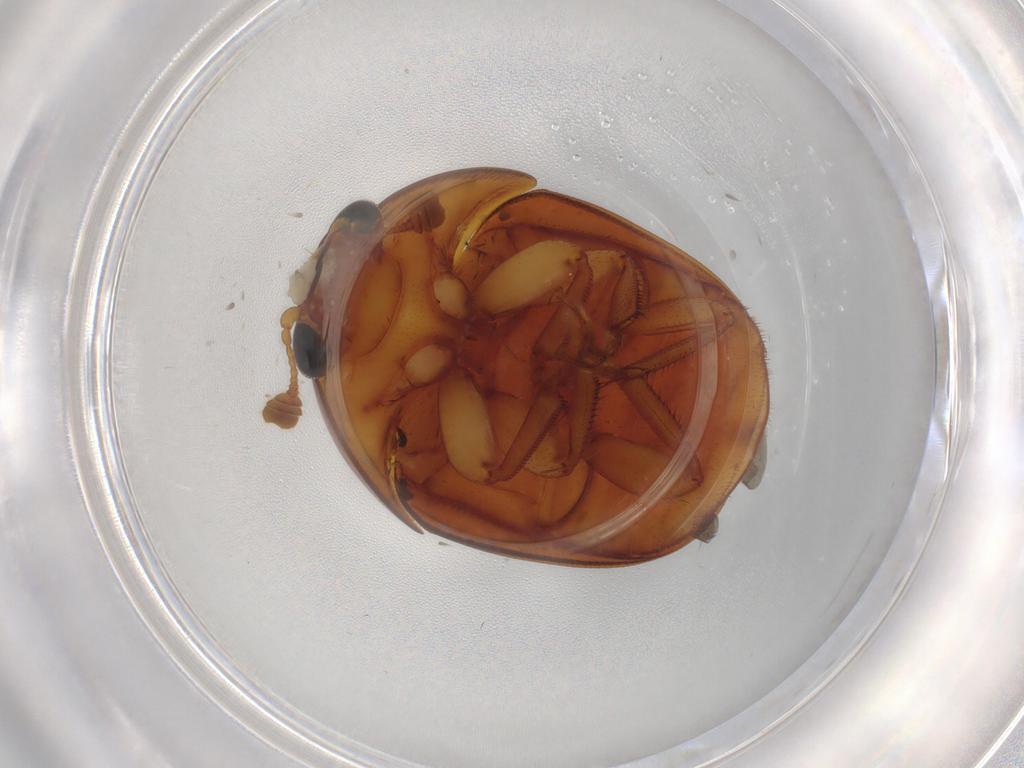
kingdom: Animalia
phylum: Arthropoda
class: Insecta
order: Coleoptera
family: Nitidulidae
